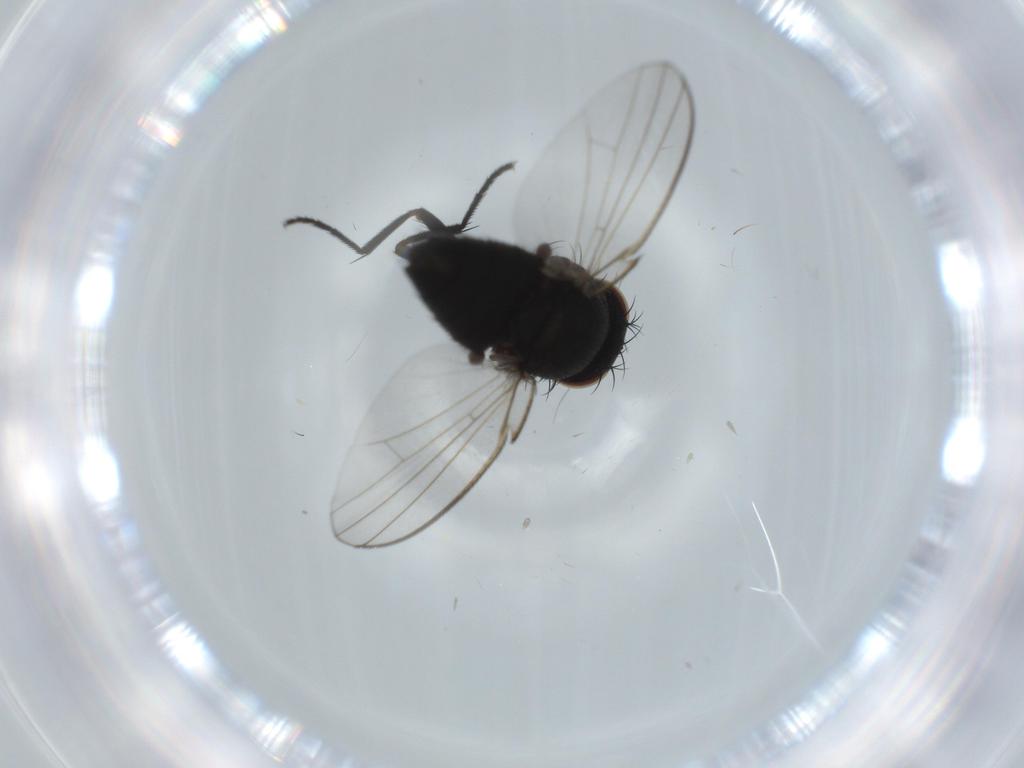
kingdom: Animalia
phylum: Arthropoda
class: Insecta
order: Diptera
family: Phoridae
